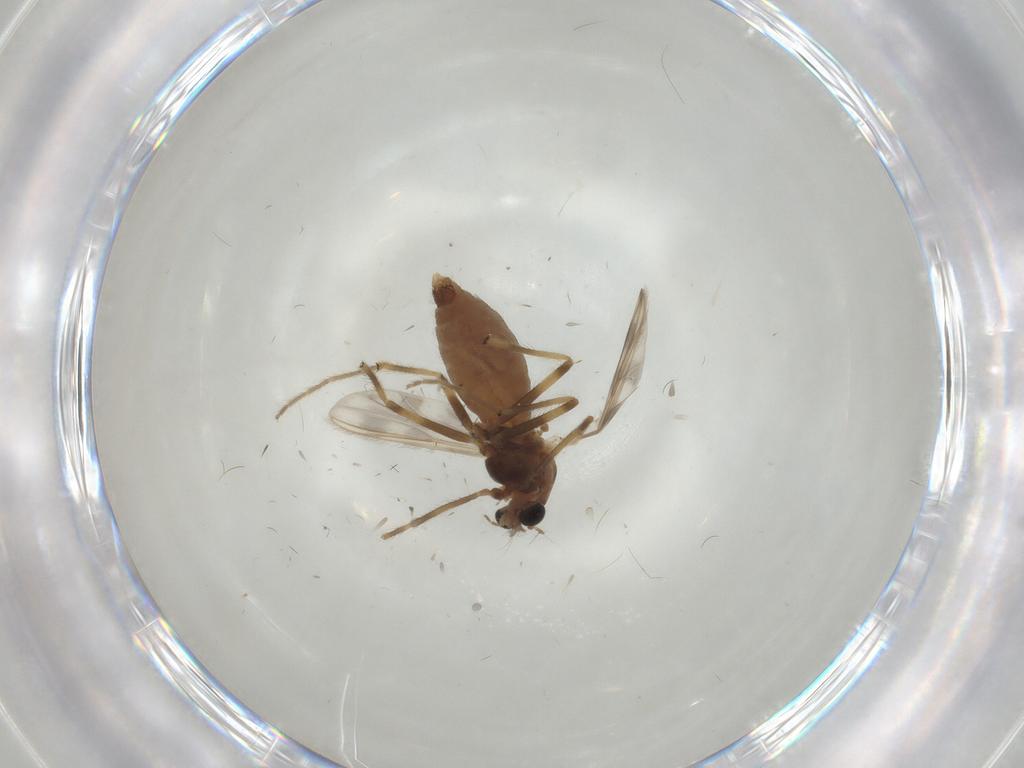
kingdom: Animalia
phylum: Arthropoda
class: Insecta
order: Diptera
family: Chironomidae
